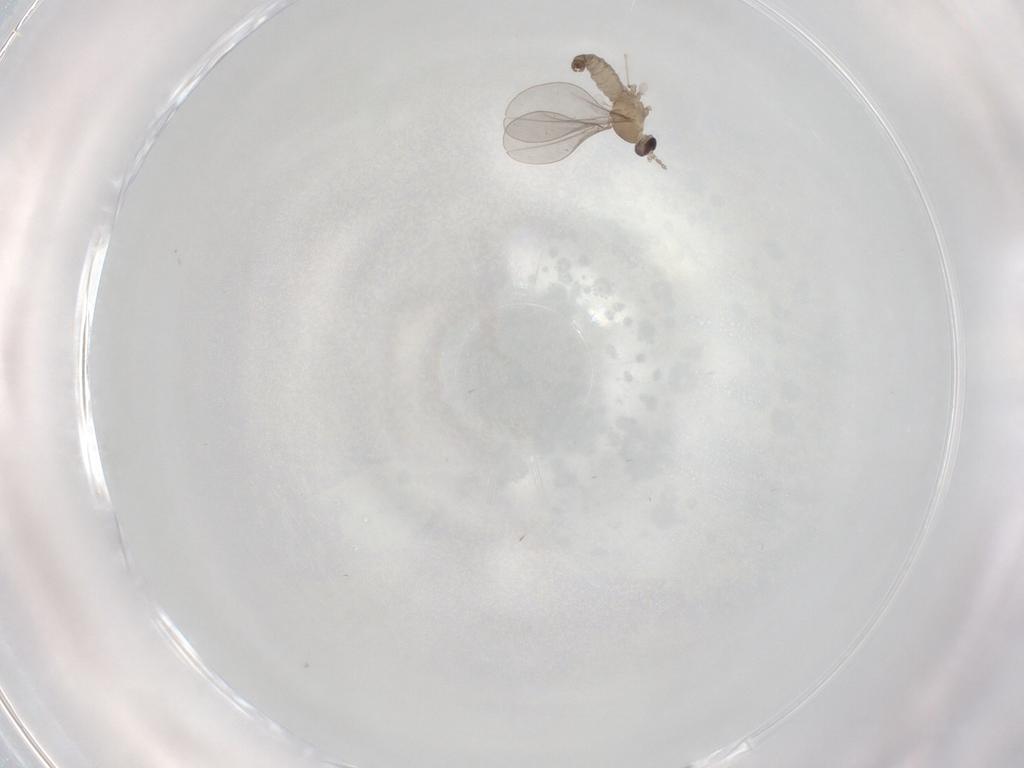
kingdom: Animalia
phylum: Arthropoda
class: Insecta
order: Diptera
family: Cecidomyiidae
